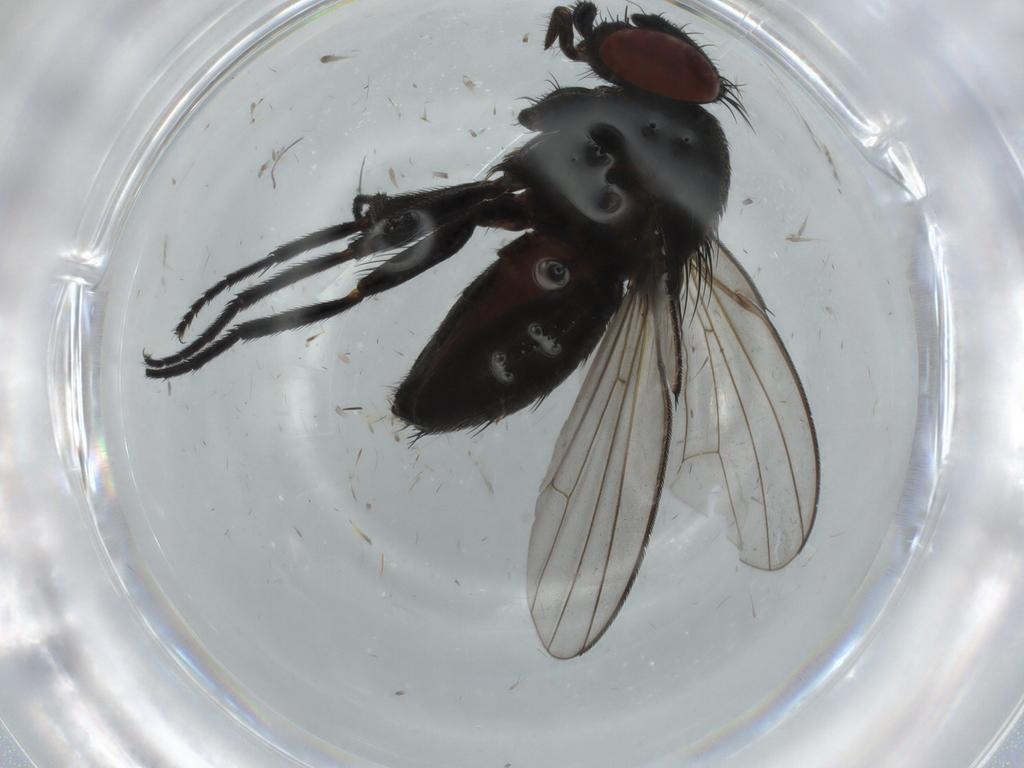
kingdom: Animalia
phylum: Arthropoda
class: Insecta
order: Diptera
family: Milichiidae
